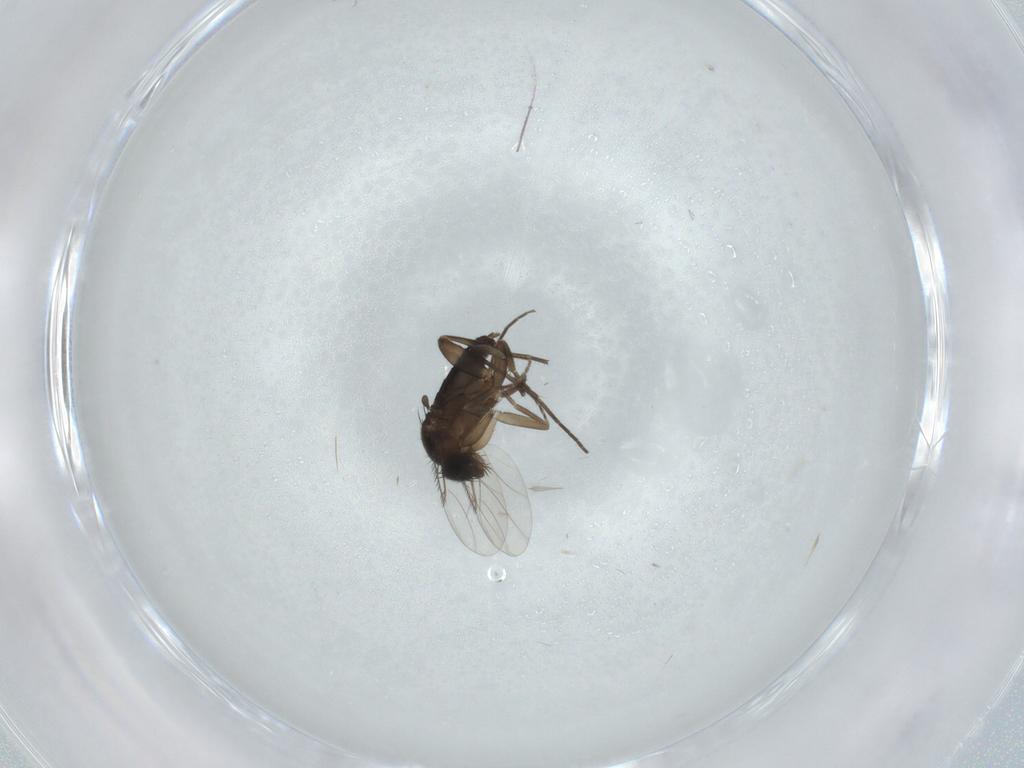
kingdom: Animalia
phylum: Arthropoda
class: Insecta
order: Diptera
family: Phoridae
